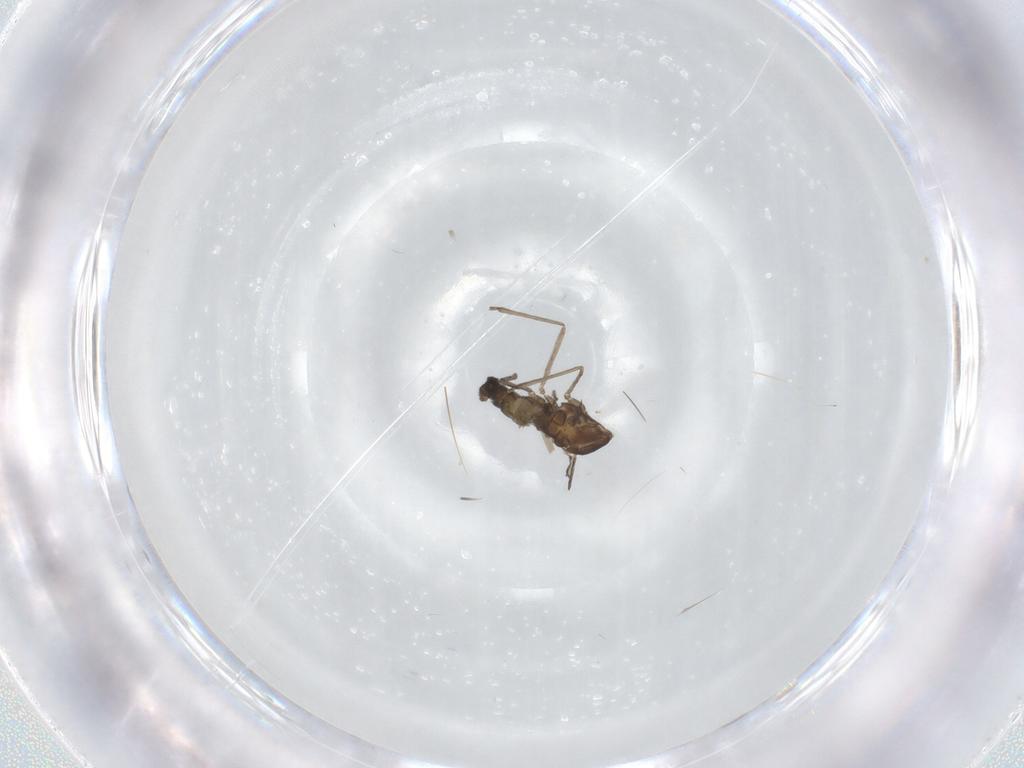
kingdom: Animalia
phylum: Arthropoda
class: Insecta
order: Diptera
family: Cecidomyiidae
